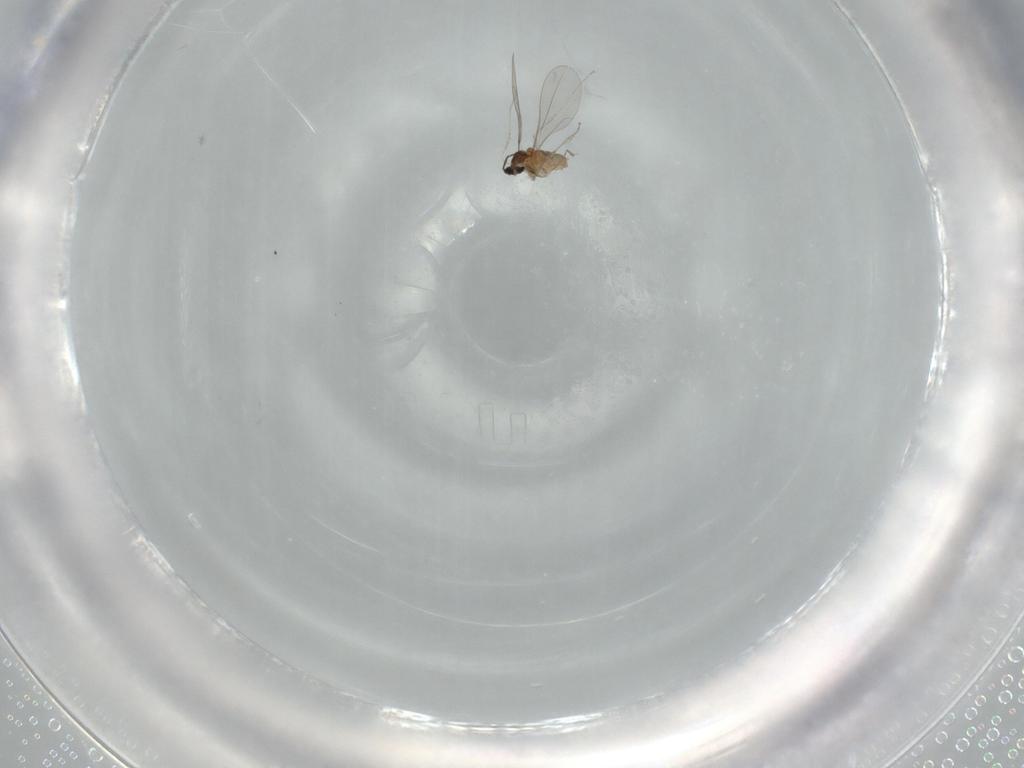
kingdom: Animalia
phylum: Arthropoda
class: Insecta
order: Diptera
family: Cecidomyiidae
